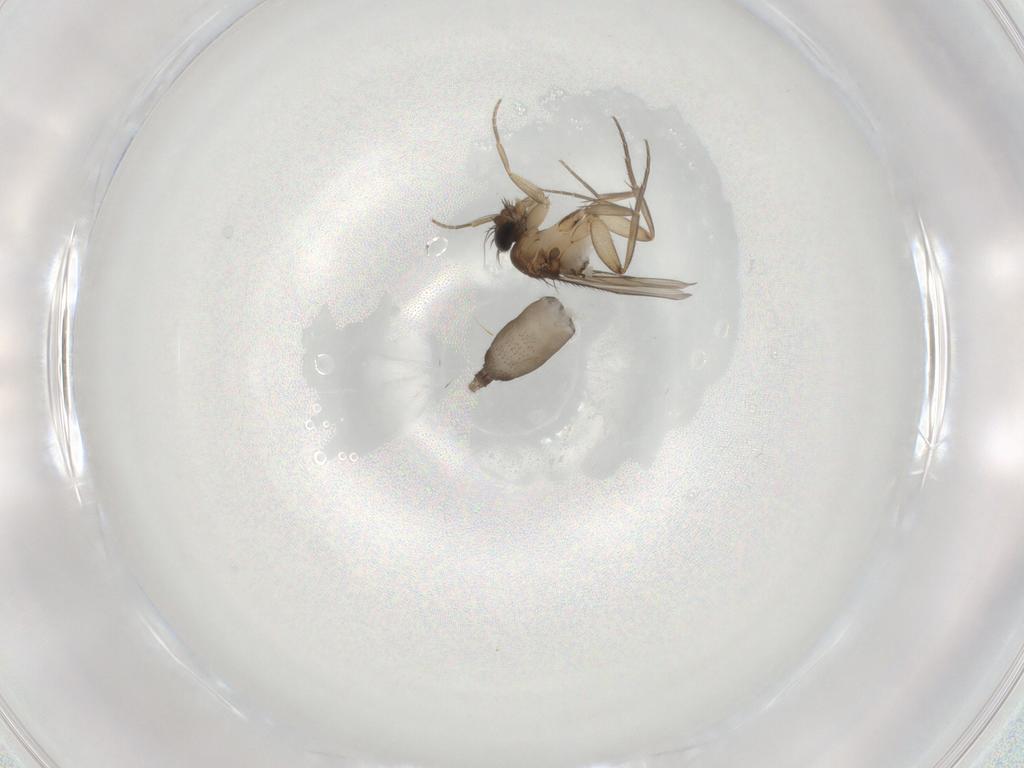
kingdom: Animalia
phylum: Arthropoda
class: Insecta
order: Diptera
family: Phoridae
